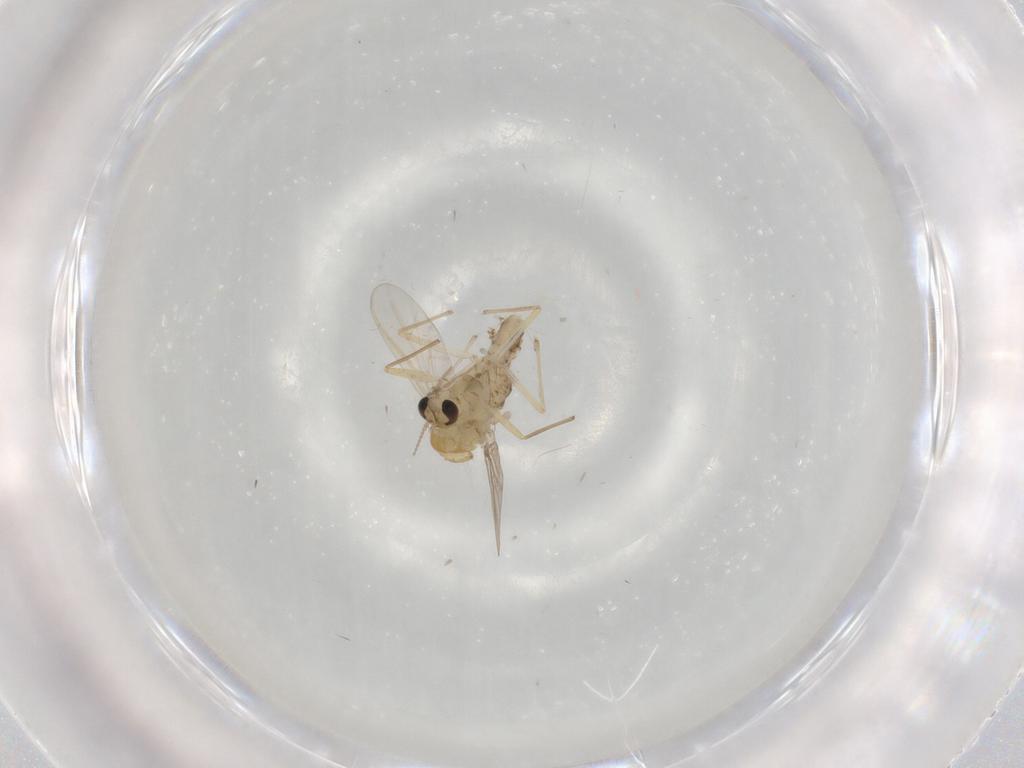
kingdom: Animalia
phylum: Arthropoda
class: Insecta
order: Diptera
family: Chironomidae
